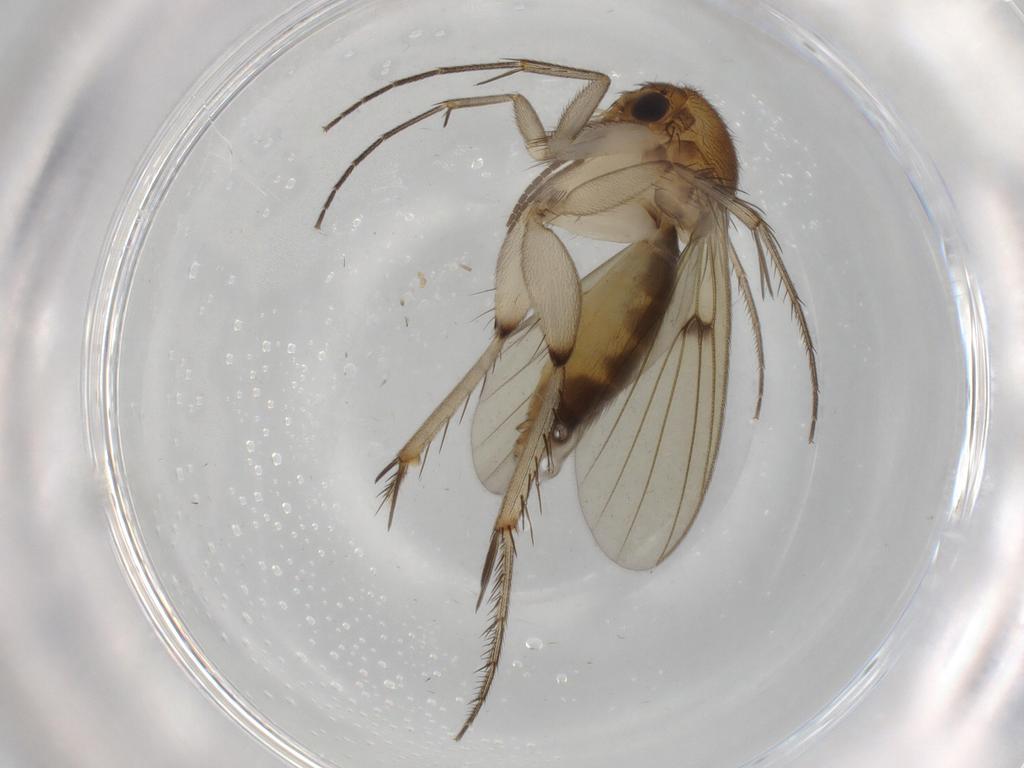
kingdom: Animalia
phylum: Arthropoda
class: Insecta
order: Diptera
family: Mycetophilidae
